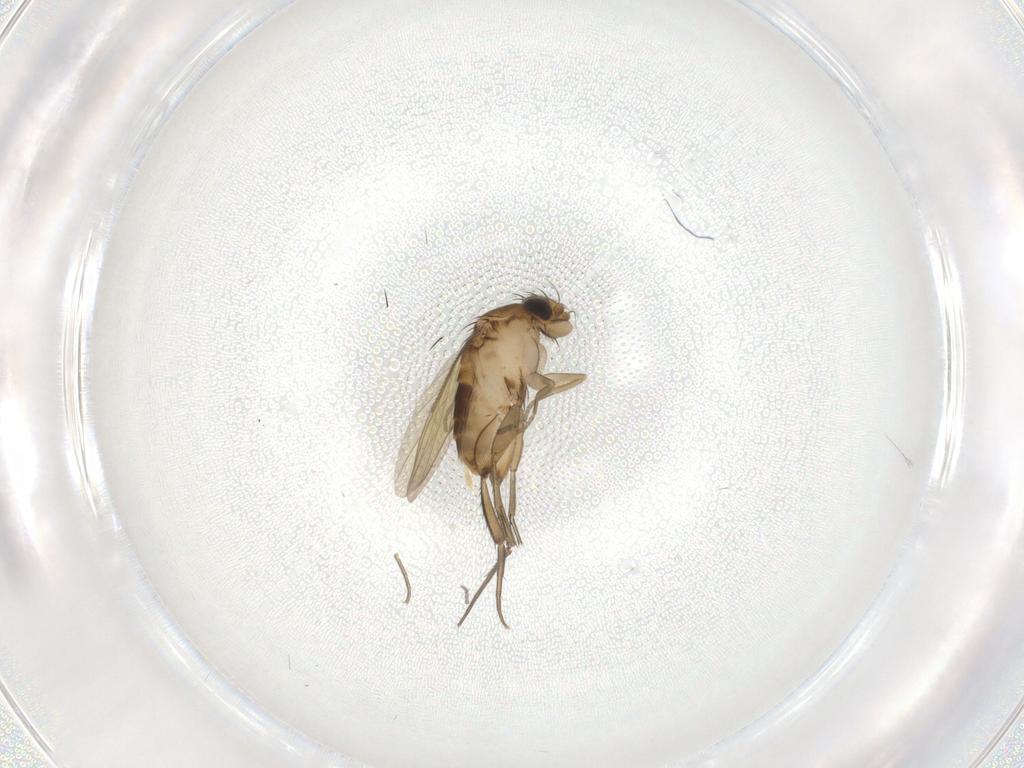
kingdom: Animalia
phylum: Arthropoda
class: Insecta
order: Diptera
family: Phoridae
